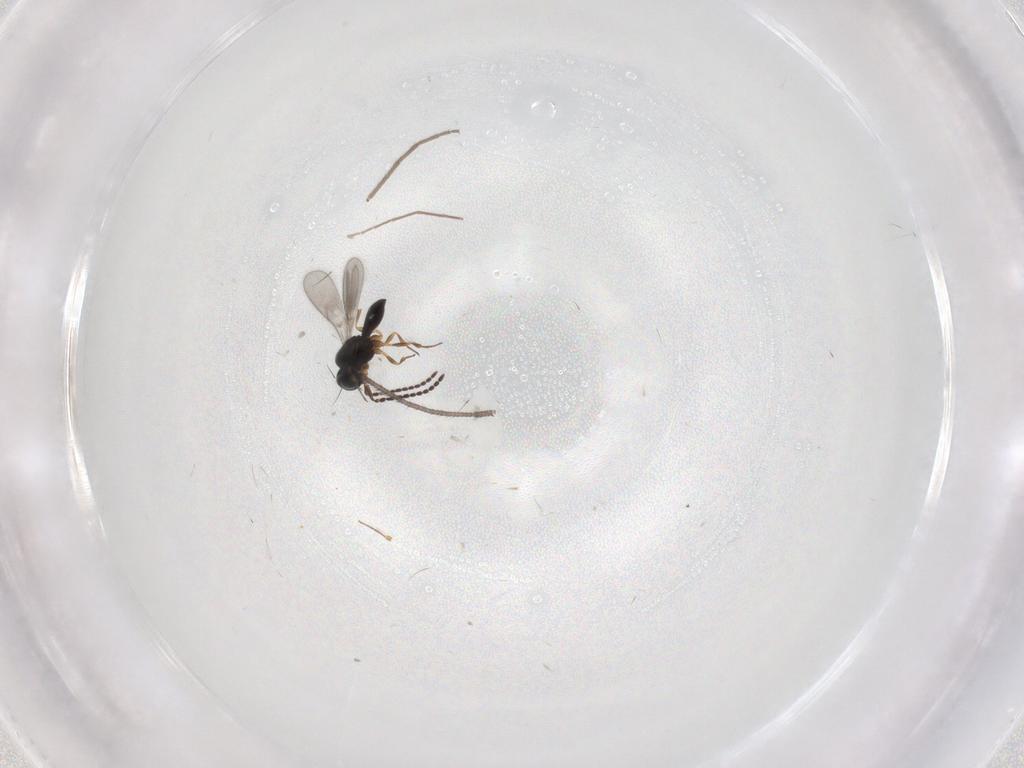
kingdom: Animalia
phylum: Arthropoda
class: Insecta
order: Hymenoptera
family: Scelionidae
